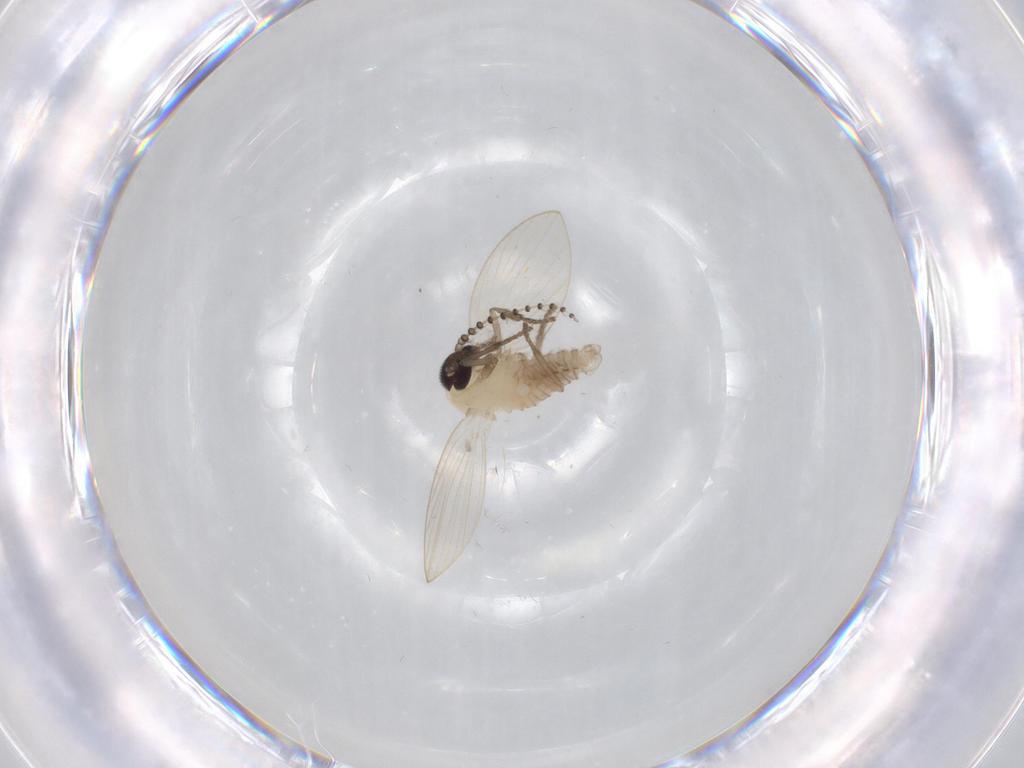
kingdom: Animalia
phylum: Arthropoda
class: Insecta
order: Diptera
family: Psychodidae
